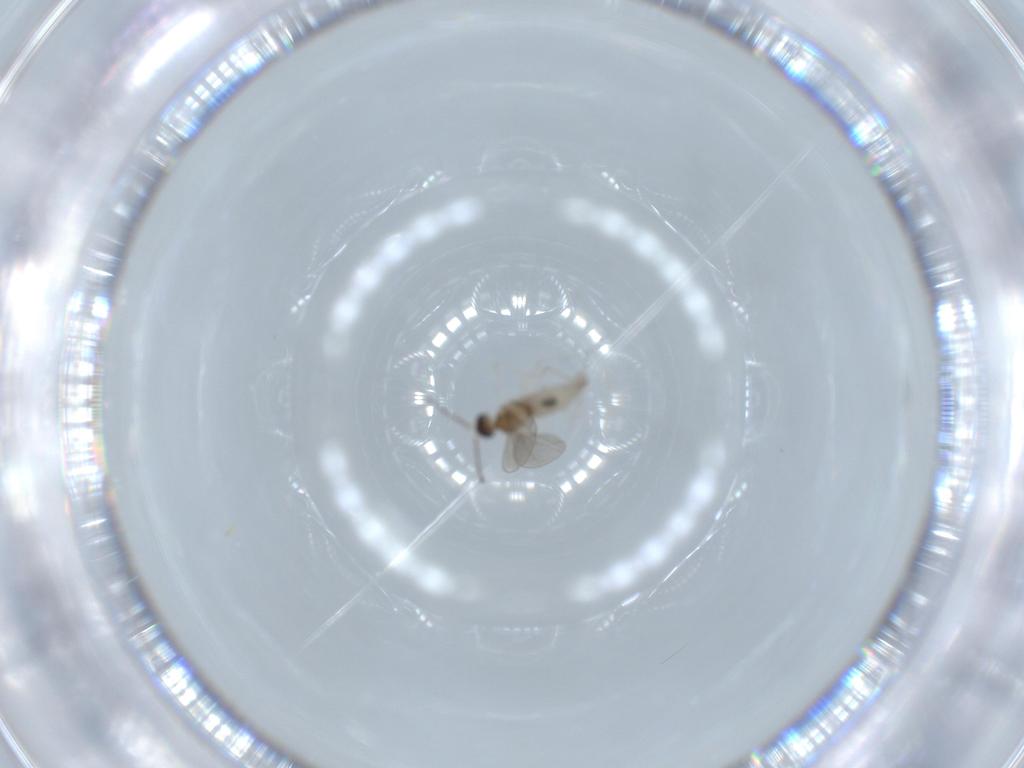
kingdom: Animalia
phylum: Arthropoda
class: Insecta
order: Diptera
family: Cecidomyiidae
